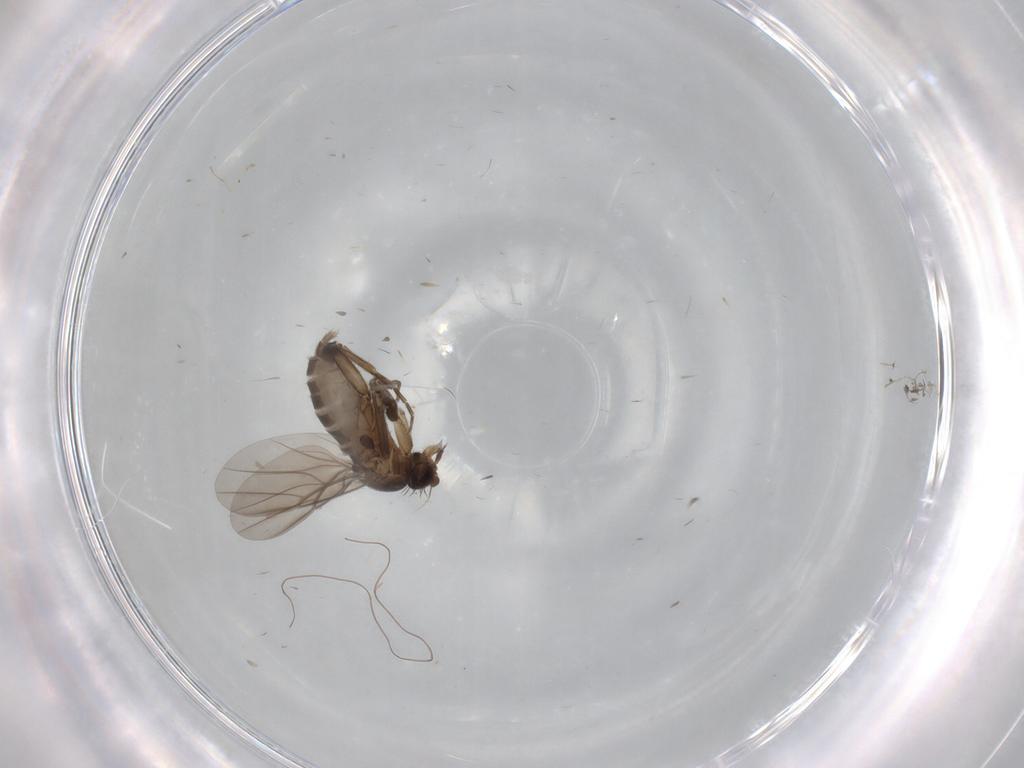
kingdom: Animalia
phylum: Arthropoda
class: Insecta
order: Diptera
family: Cecidomyiidae
